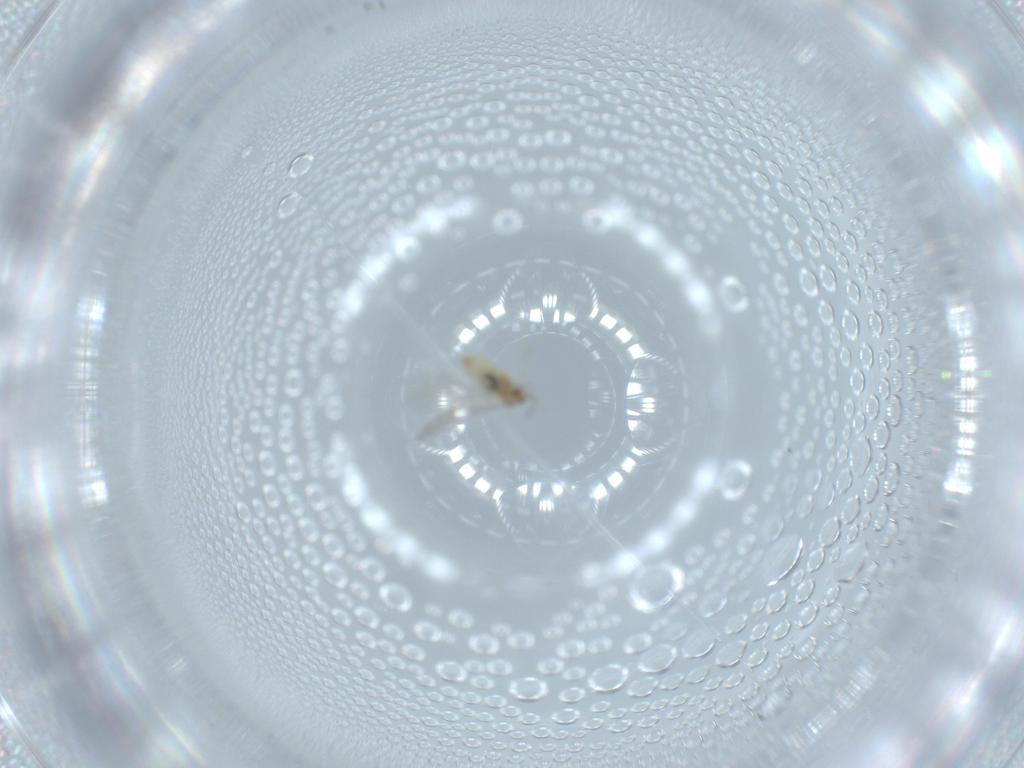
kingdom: Animalia
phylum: Arthropoda
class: Insecta
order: Diptera
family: Cecidomyiidae
